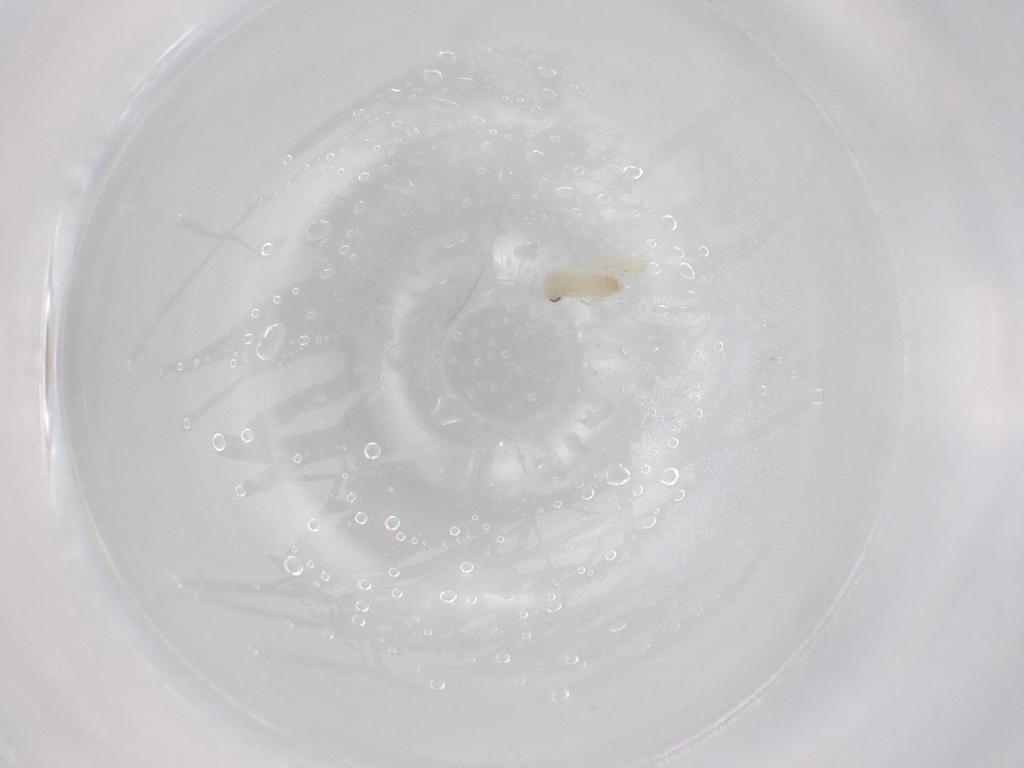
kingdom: Animalia
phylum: Arthropoda
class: Insecta
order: Hemiptera
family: Aleyrodidae
